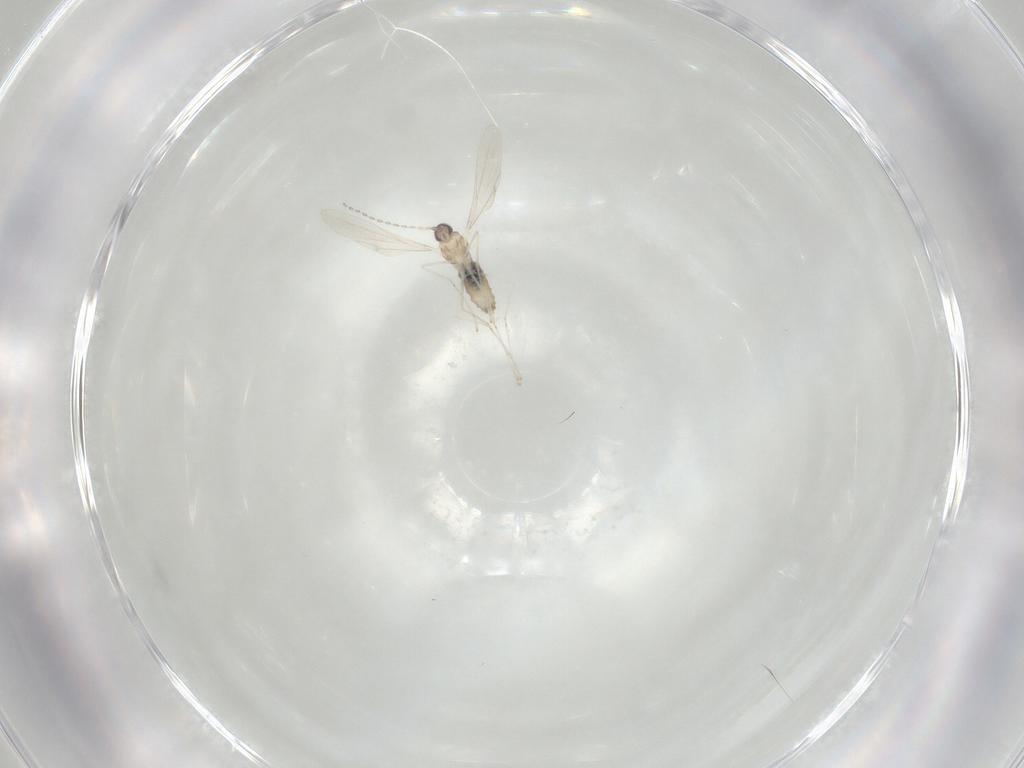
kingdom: Animalia
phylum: Arthropoda
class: Insecta
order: Diptera
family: Cecidomyiidae
